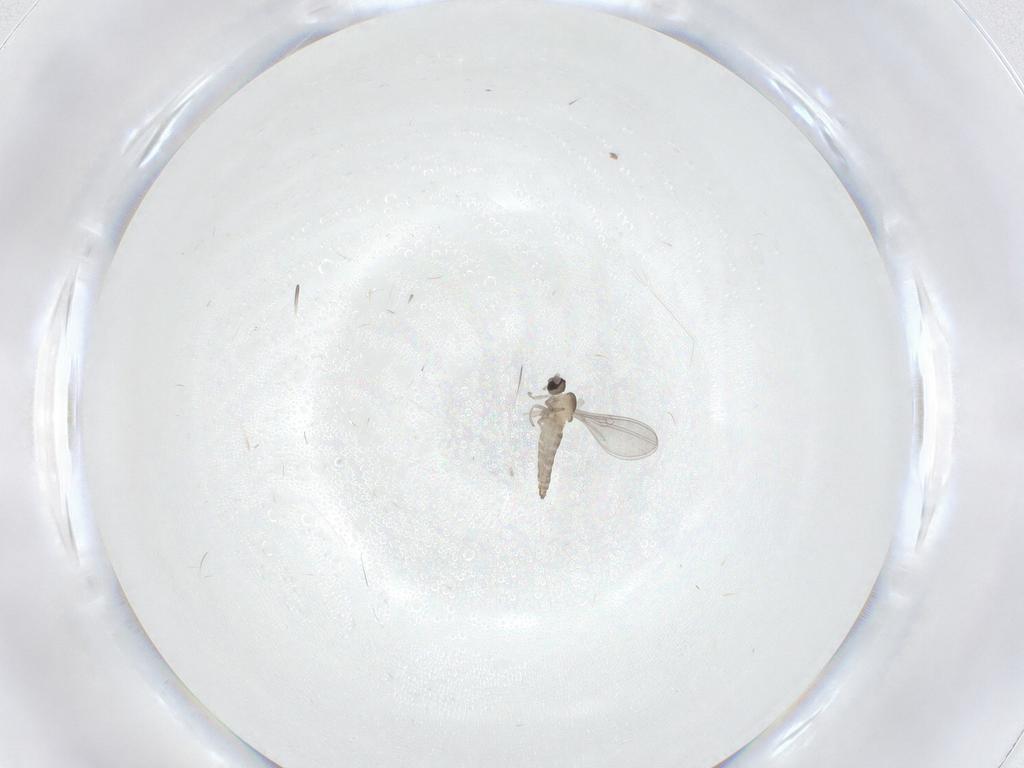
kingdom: Animalia
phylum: Arthropoda
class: Insecta
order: Diptera
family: Cecidomyiidae
